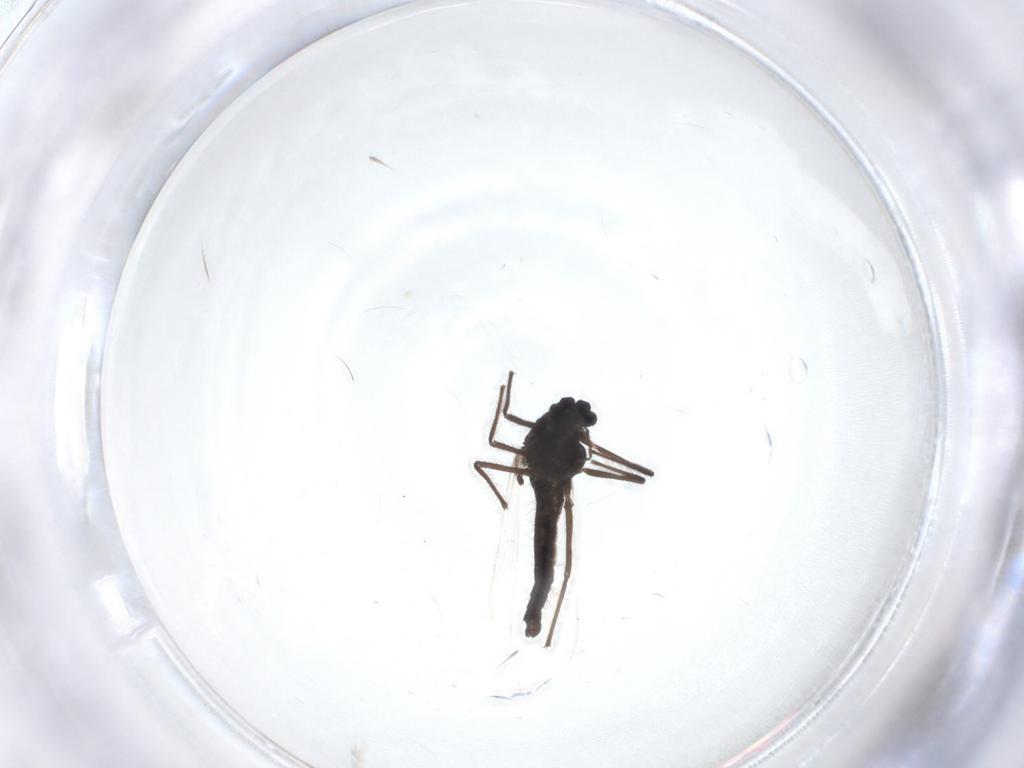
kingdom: Animalia
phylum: Arthropoda
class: Insecta
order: Diptera
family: Chironomidae
